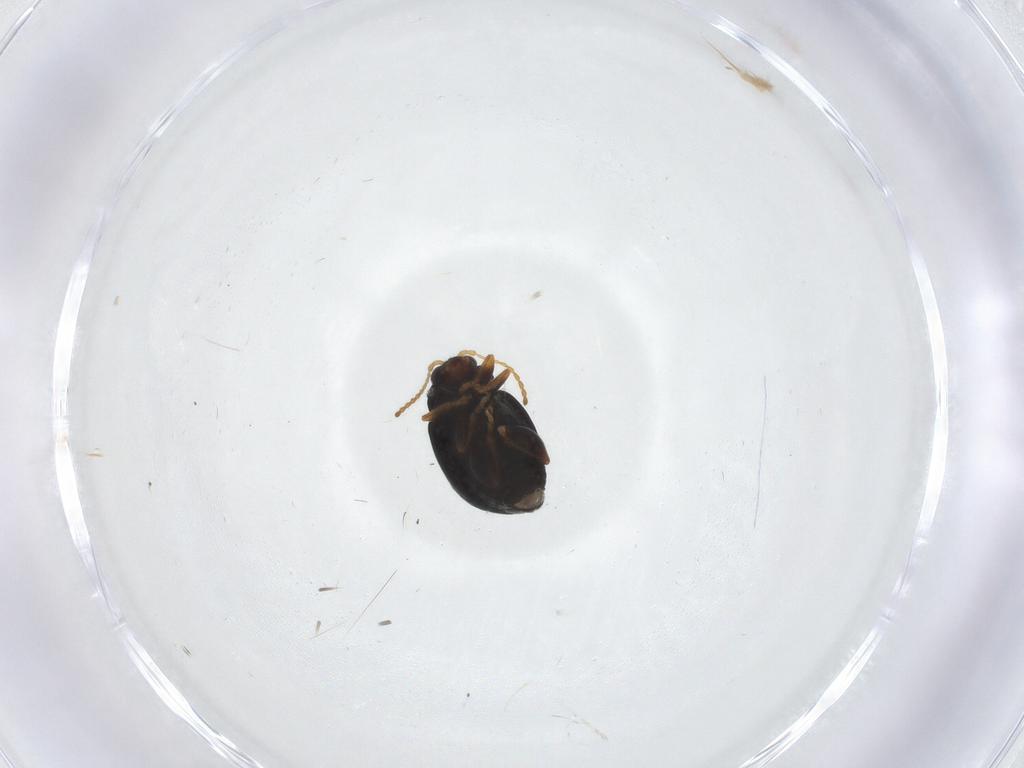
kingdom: Animalia
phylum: Arthropoda
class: Insecta
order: Coleoptera
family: Chrysomelidae
